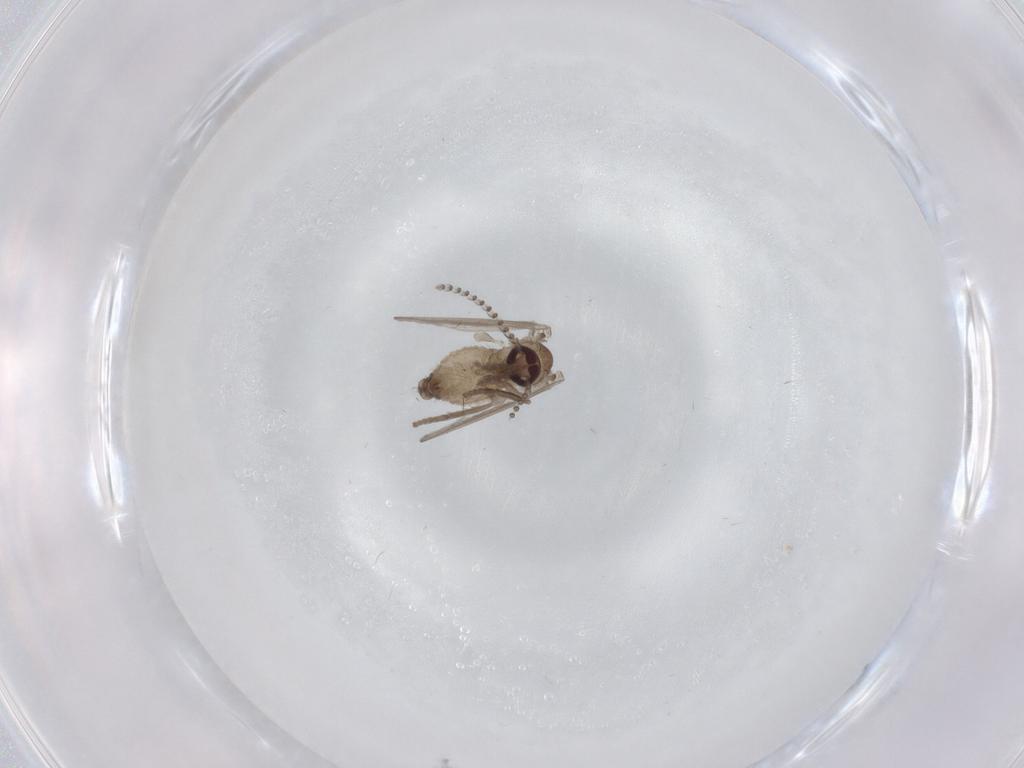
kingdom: Animalia
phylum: Arthropoda
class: Insecta
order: Diptera
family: Psychodidae
